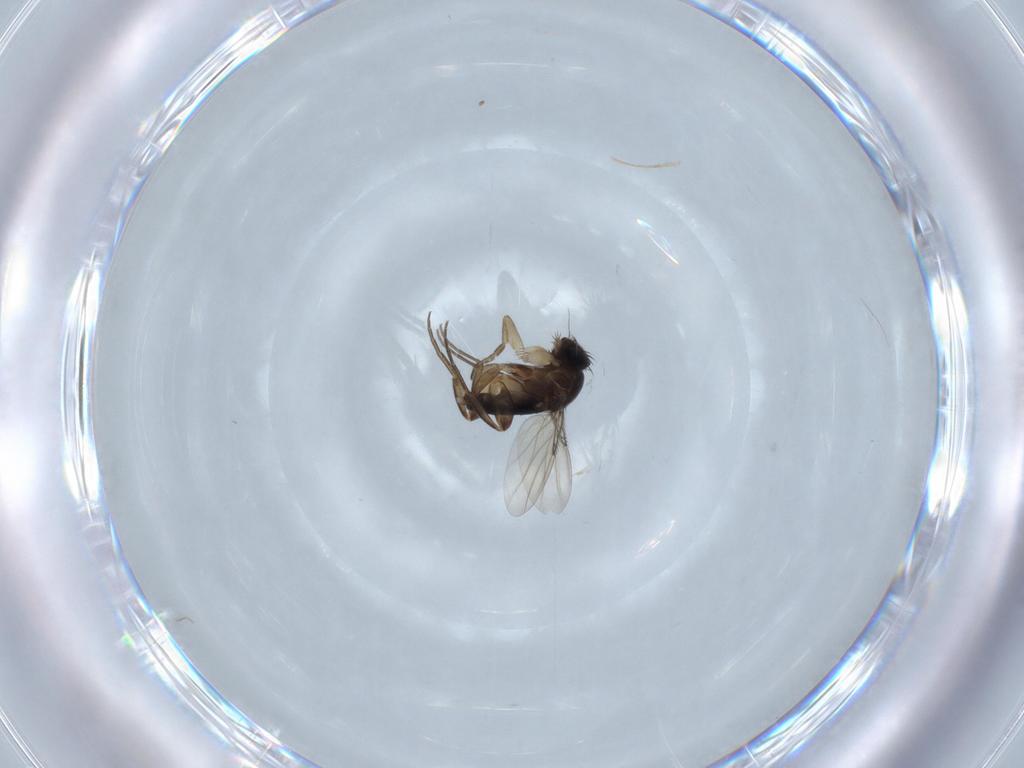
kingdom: Animalia
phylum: Arthropoda
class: Insecta
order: Diptera
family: Phoridae
